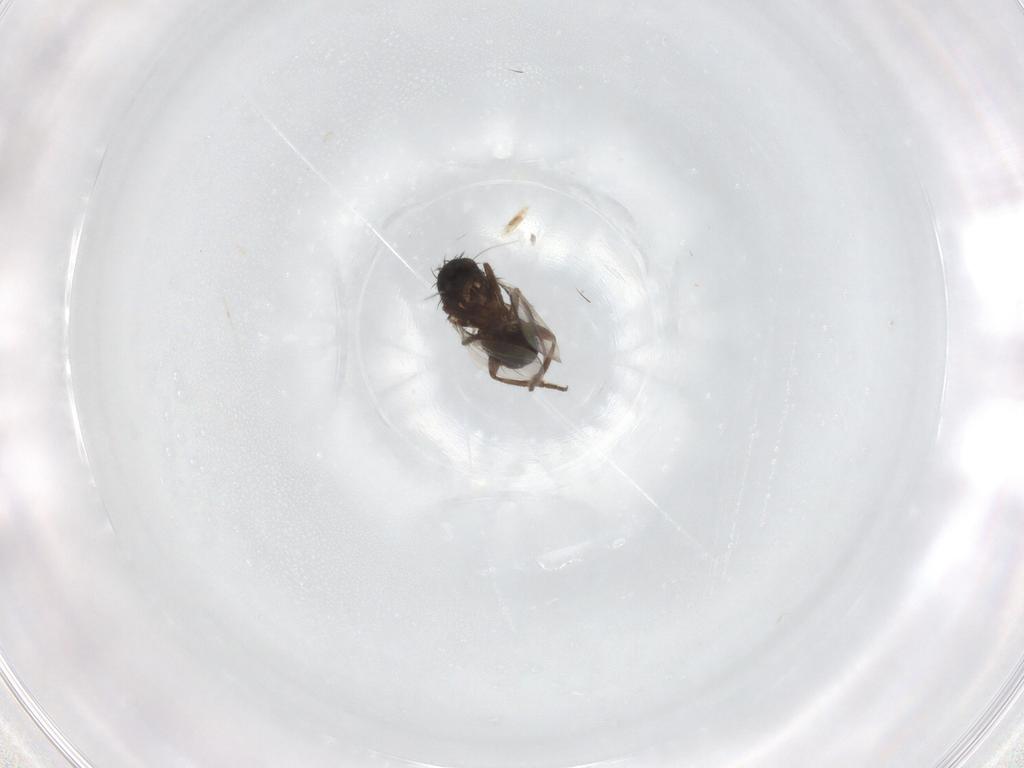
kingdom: Animalia
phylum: Arthropoda
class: Insecta
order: Diptera
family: Sphaeroceridae
